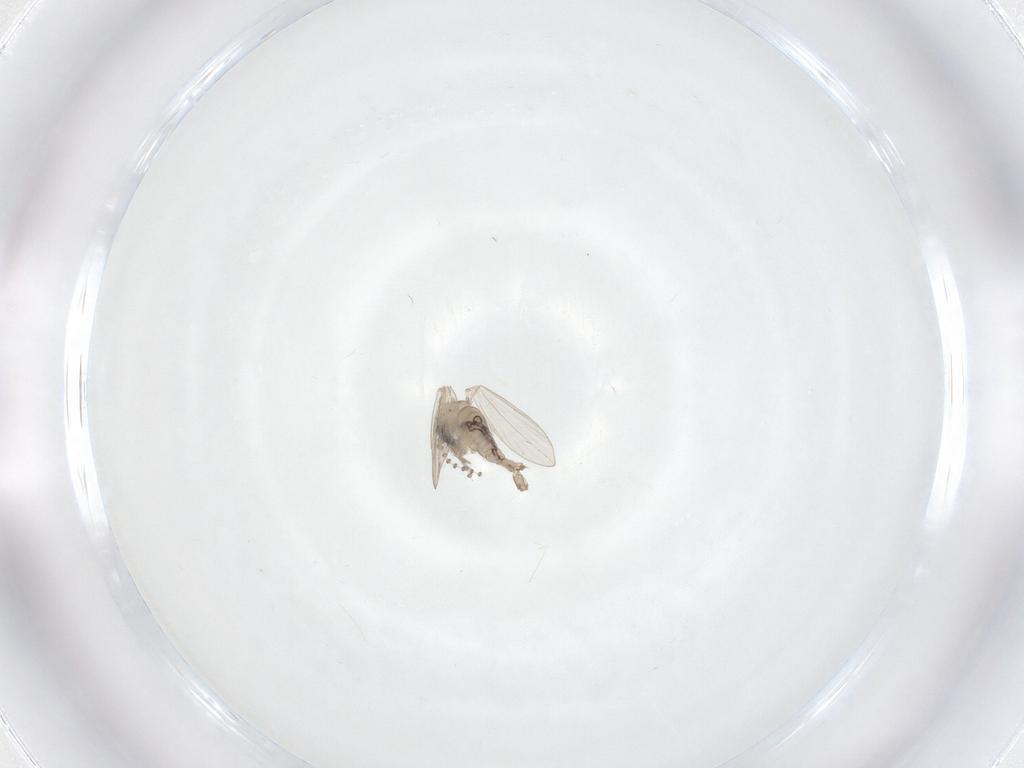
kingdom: Animalia
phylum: Arthropoda
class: Insecta
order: Diptera
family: Psychodidae
